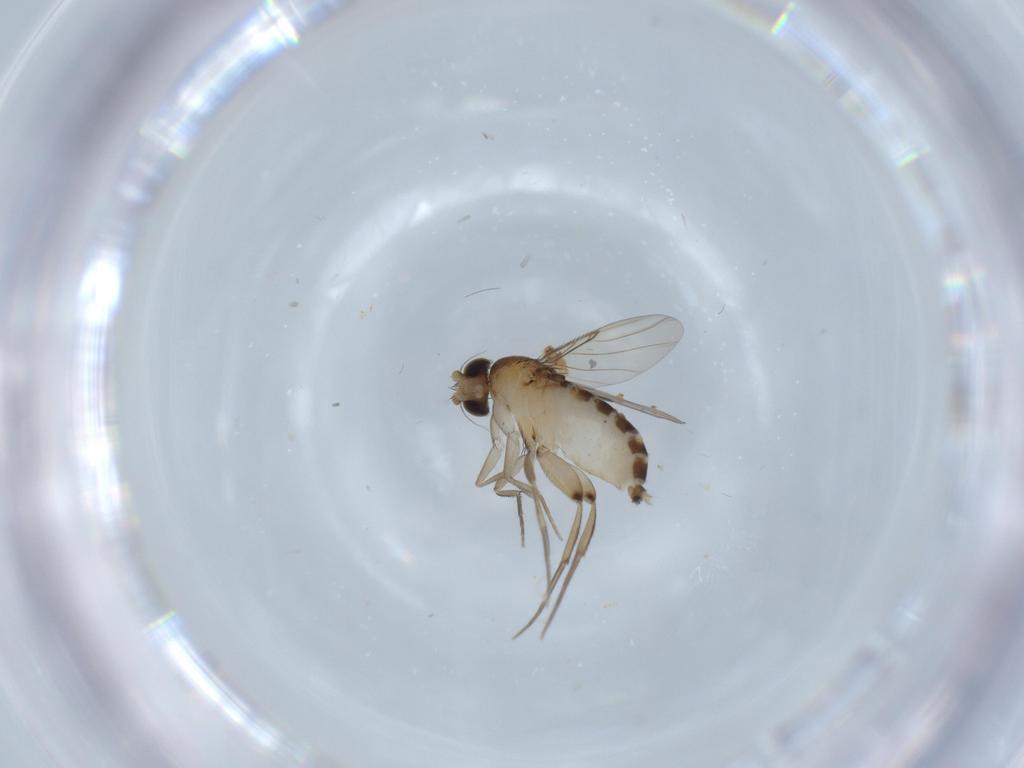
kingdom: Animalia
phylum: Arthropoda
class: Insecta
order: Diptera
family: Phoridae
